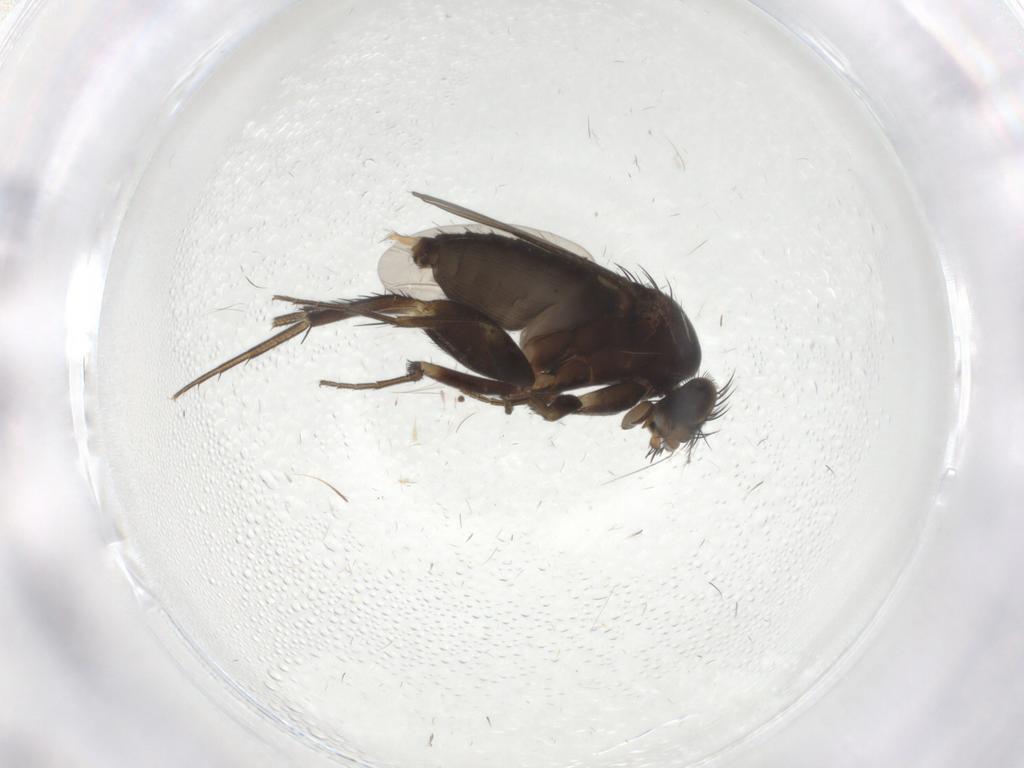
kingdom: Animalia
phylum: Arthropoda
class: Insecta
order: Diptera
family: Cecidomyiidae
